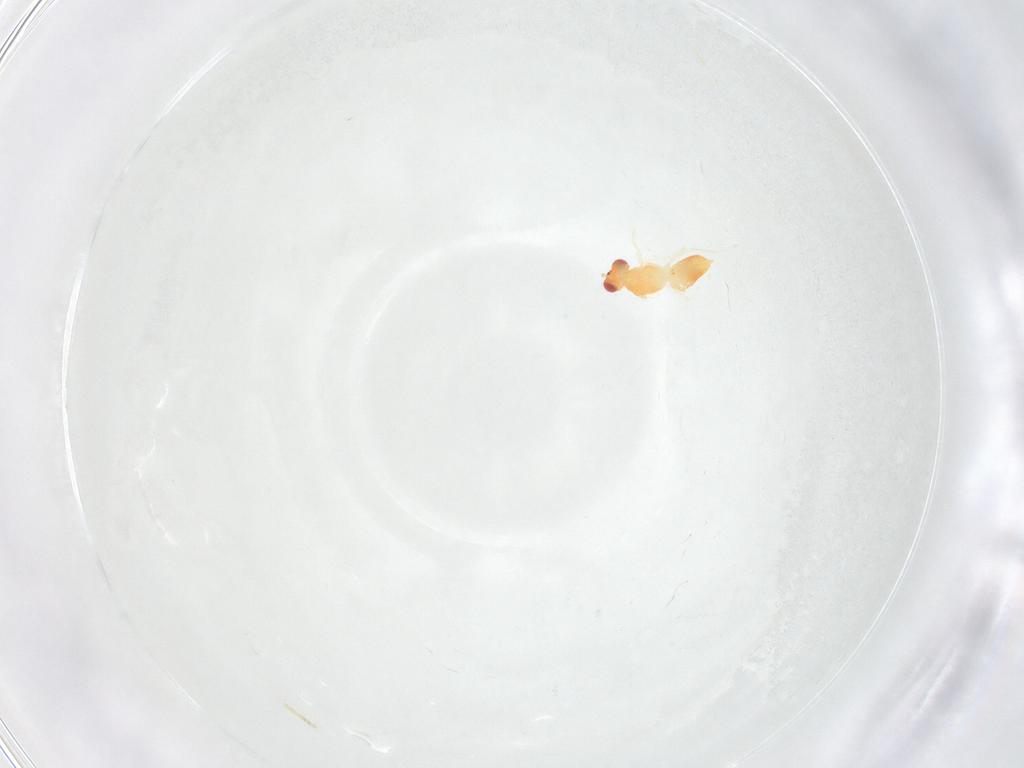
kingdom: Animalia
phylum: Arthropoda
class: Insecta
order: Hymenoptera
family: Eulophidae
